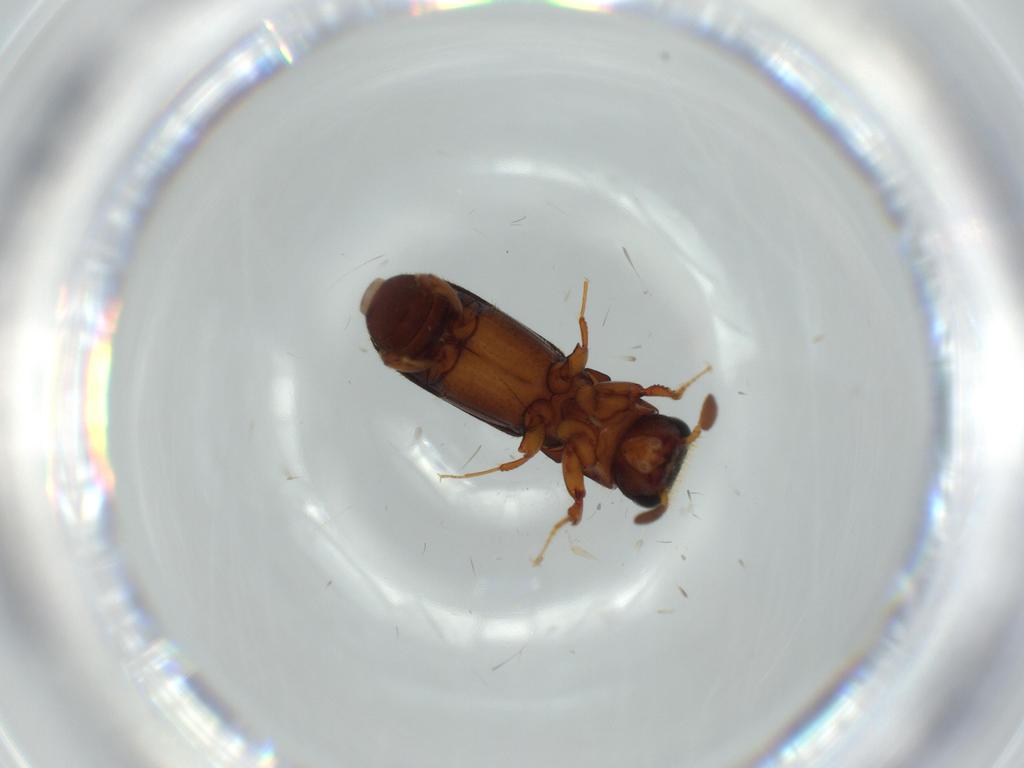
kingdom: Animalia
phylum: Arthropoda
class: Insecta
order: Coleoptera
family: Curculionidae
